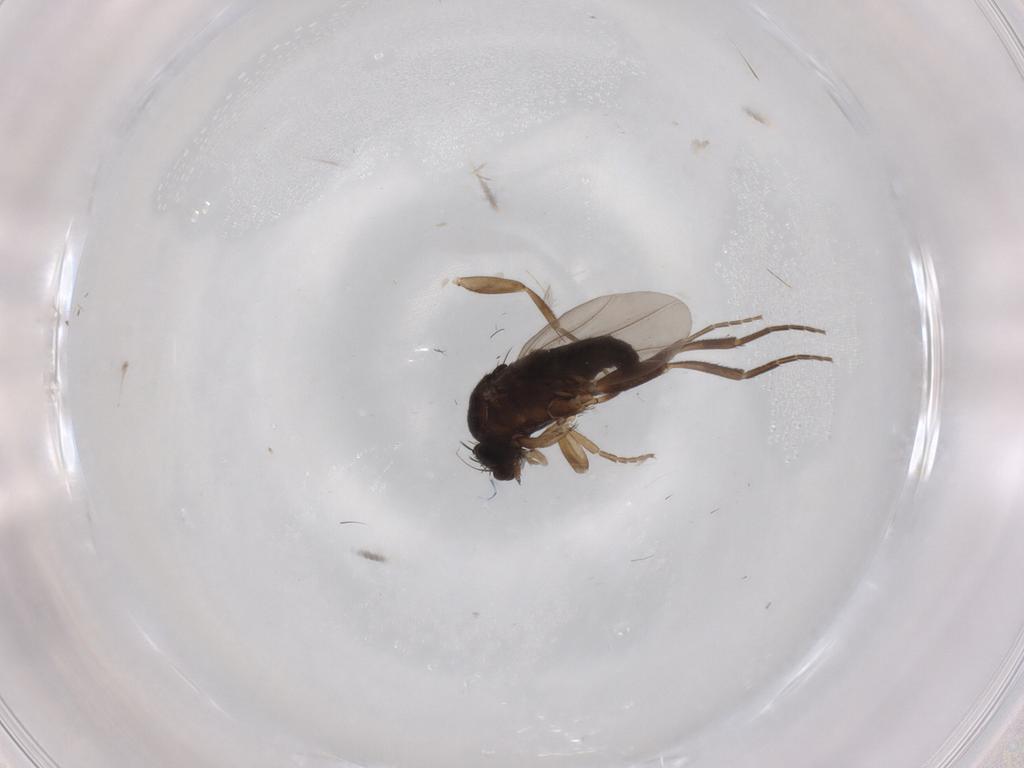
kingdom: Animalia
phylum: Arthropoda
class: Insecta
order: Diptera
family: Phoridae
